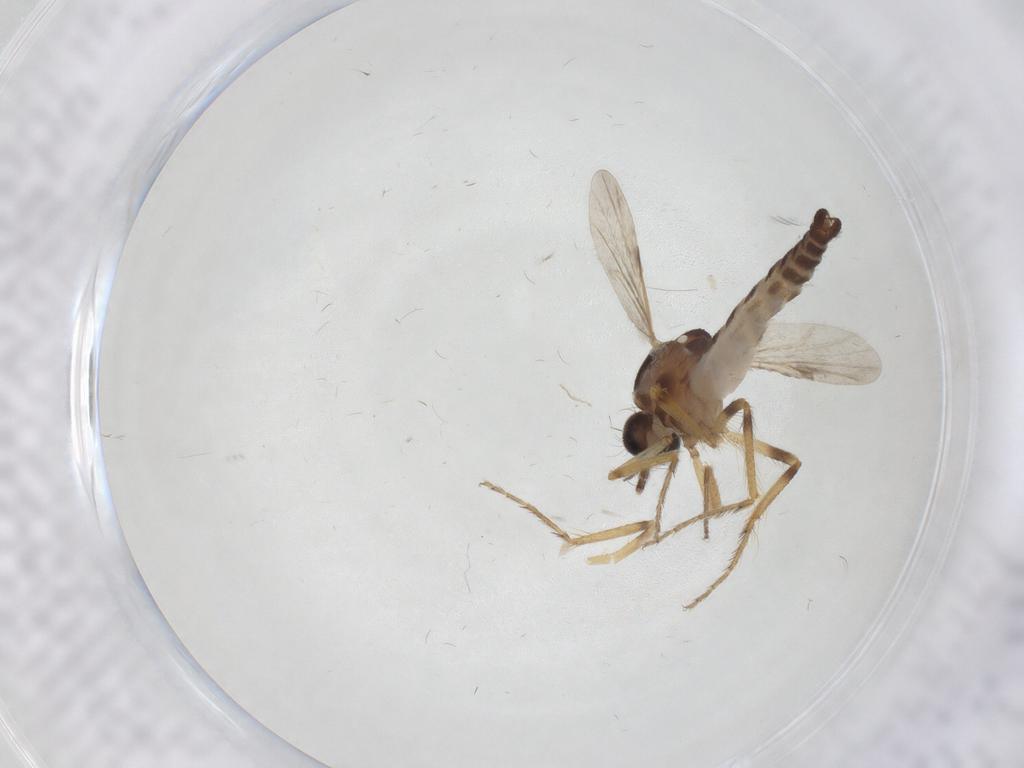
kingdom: Animalia
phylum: Arthropoda
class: Insecta
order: Diptera
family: Ceratopogonidae
